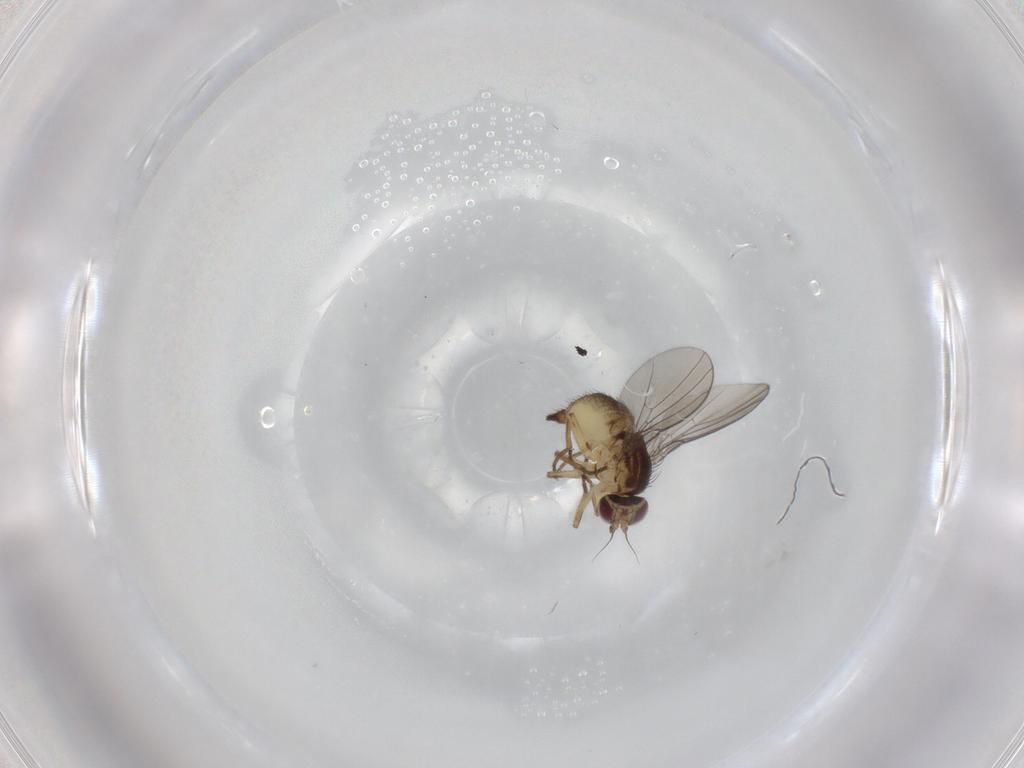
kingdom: Animalia
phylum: Arthropoda
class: Insecta
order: Diptera
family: Agromyzidae
